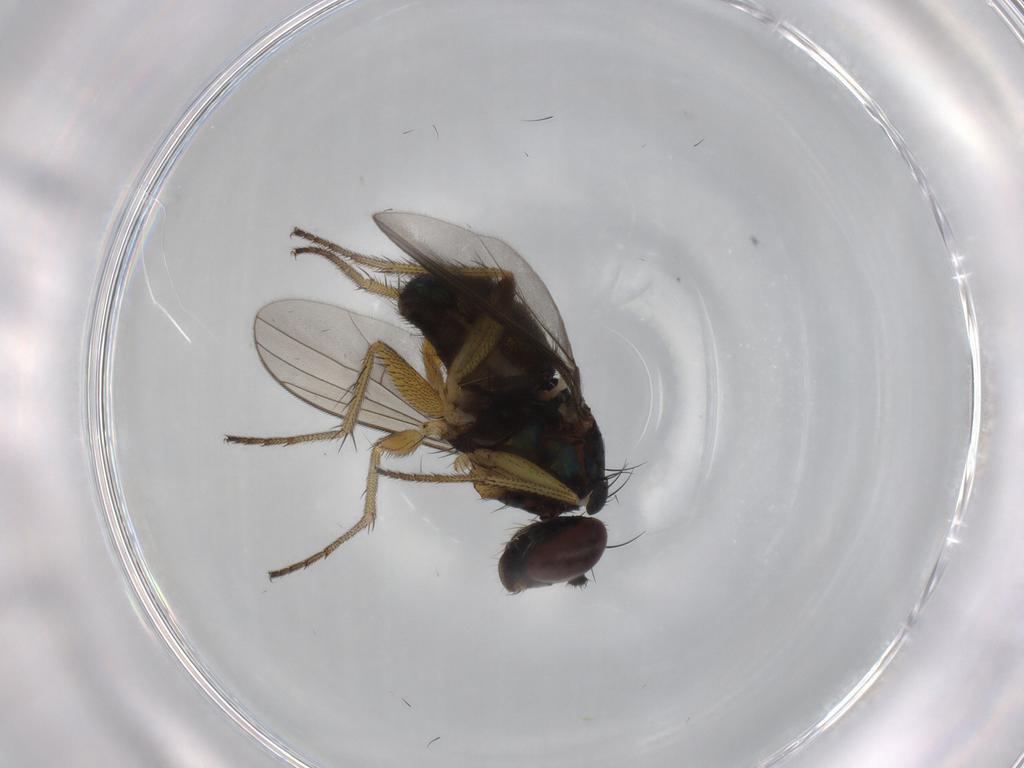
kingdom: Animalia
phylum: Arthropoda
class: Insecta
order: Diptera
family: Dolichopodidae
